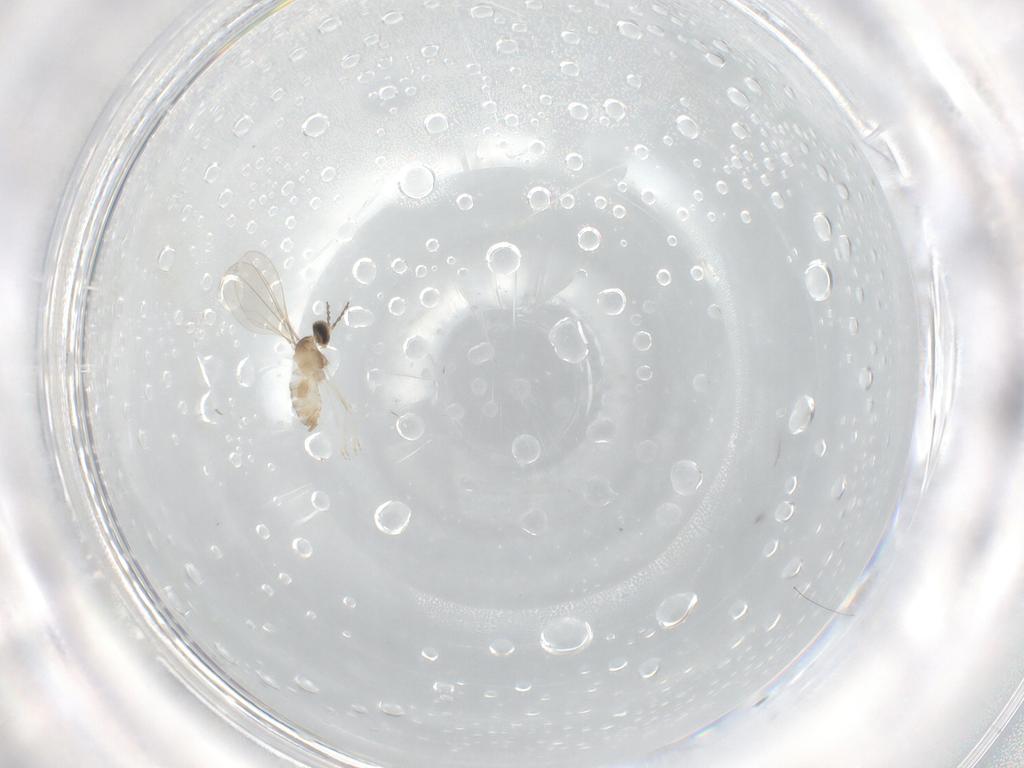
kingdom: Animalia
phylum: Arthropoda
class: Insecta
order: Diptera
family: Cecidomyiidae
